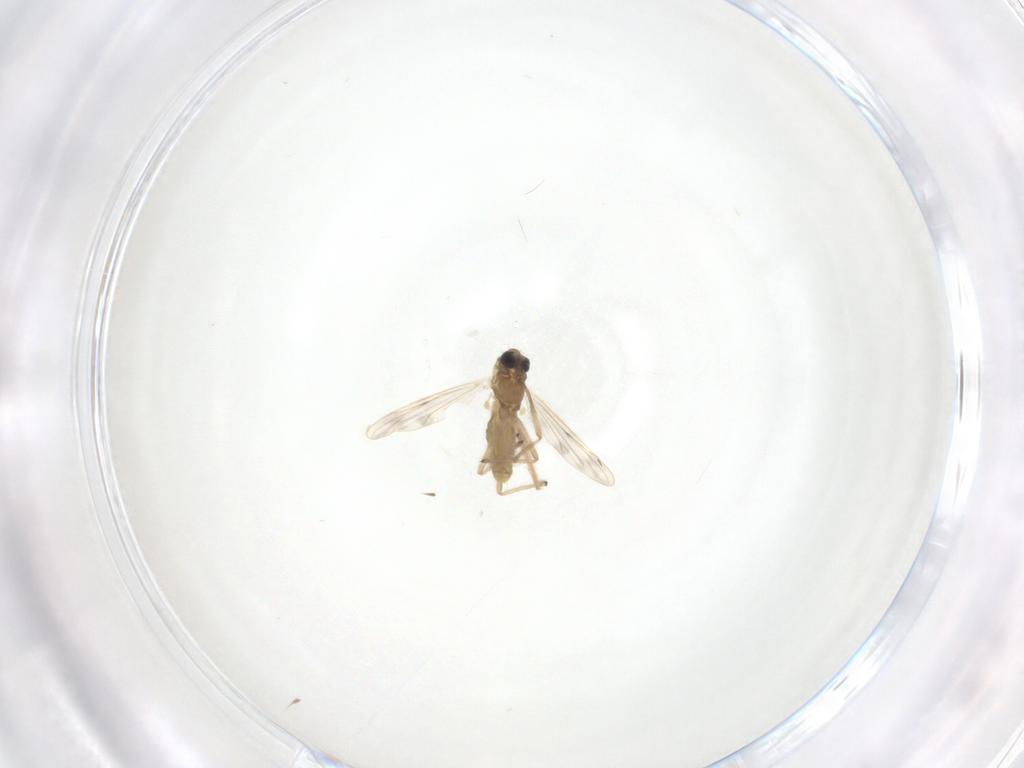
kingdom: Animalia
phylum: Arthropoda
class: Insecta
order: Diptera
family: Chironomidae
